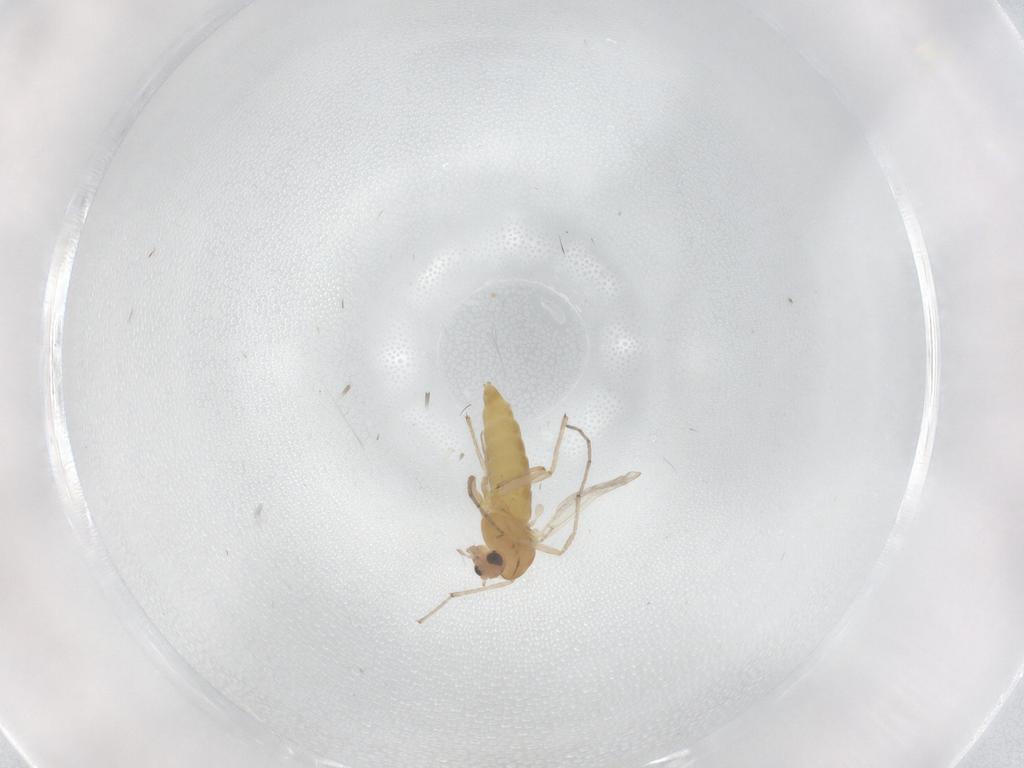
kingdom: Animalia
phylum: Arthropoda
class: Insecta
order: Diptera
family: Chironomidae
